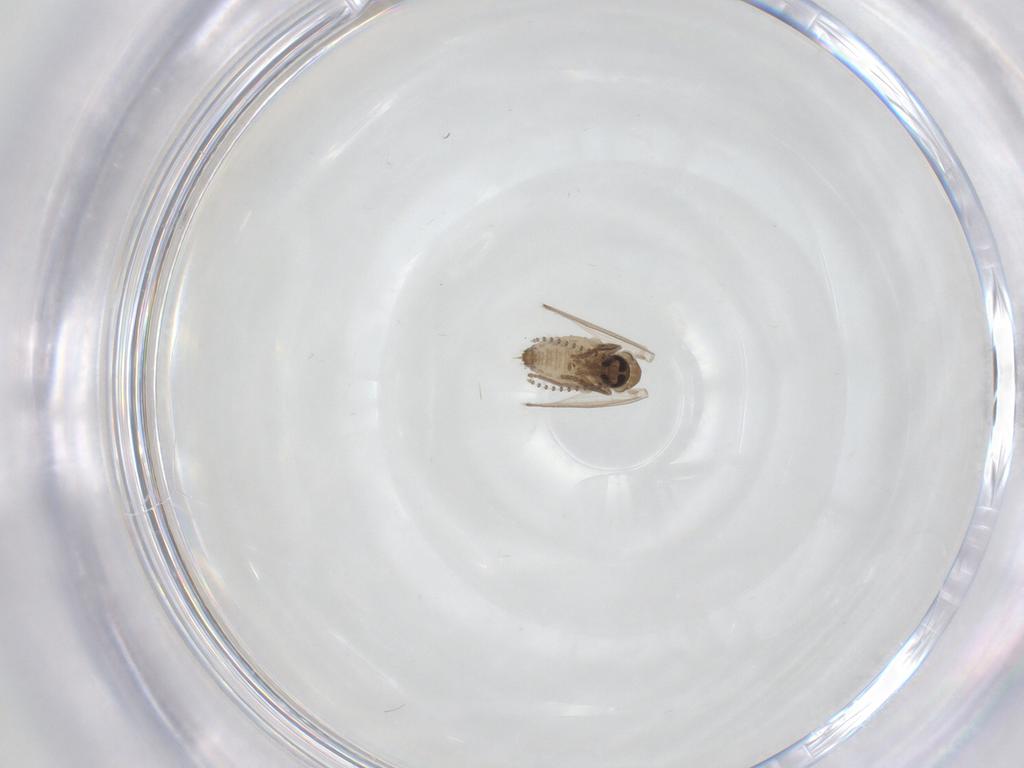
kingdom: Animalia
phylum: Arthropoda
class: Insecta
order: Diptera
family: Psychodidae
